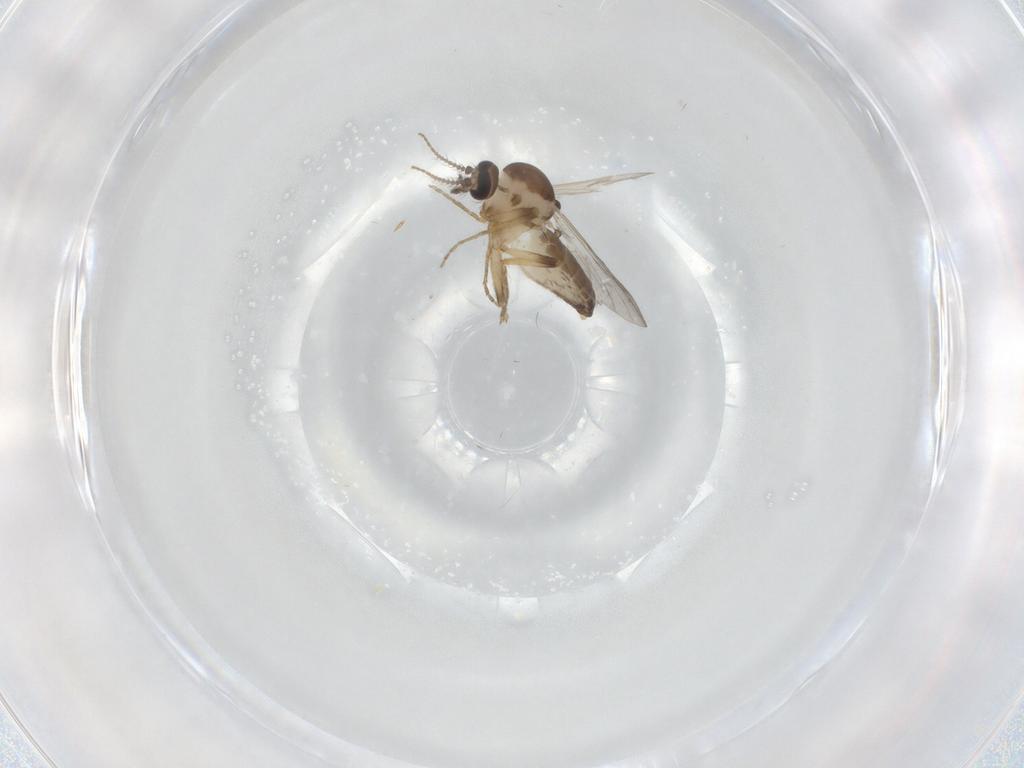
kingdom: Animalia
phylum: Arthropoda
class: Insecta
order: Diptera
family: Ceratopogonidae
